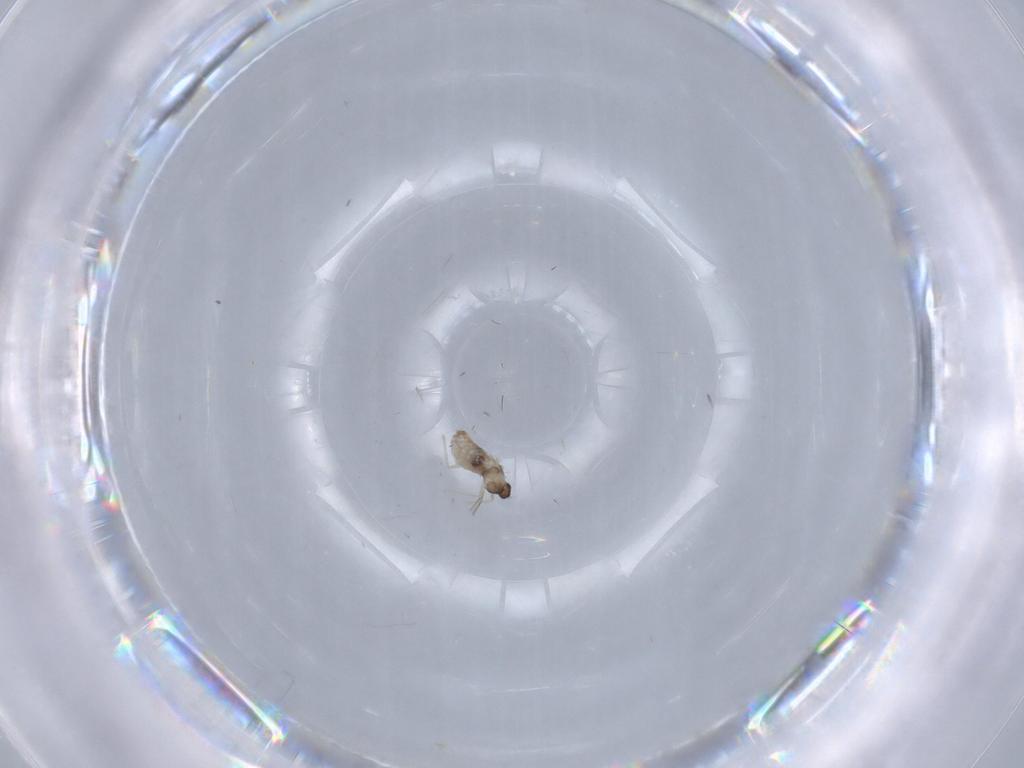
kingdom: Animalia
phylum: Arthropoda
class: Insecta
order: Diptera
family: Cecidomyiidae
